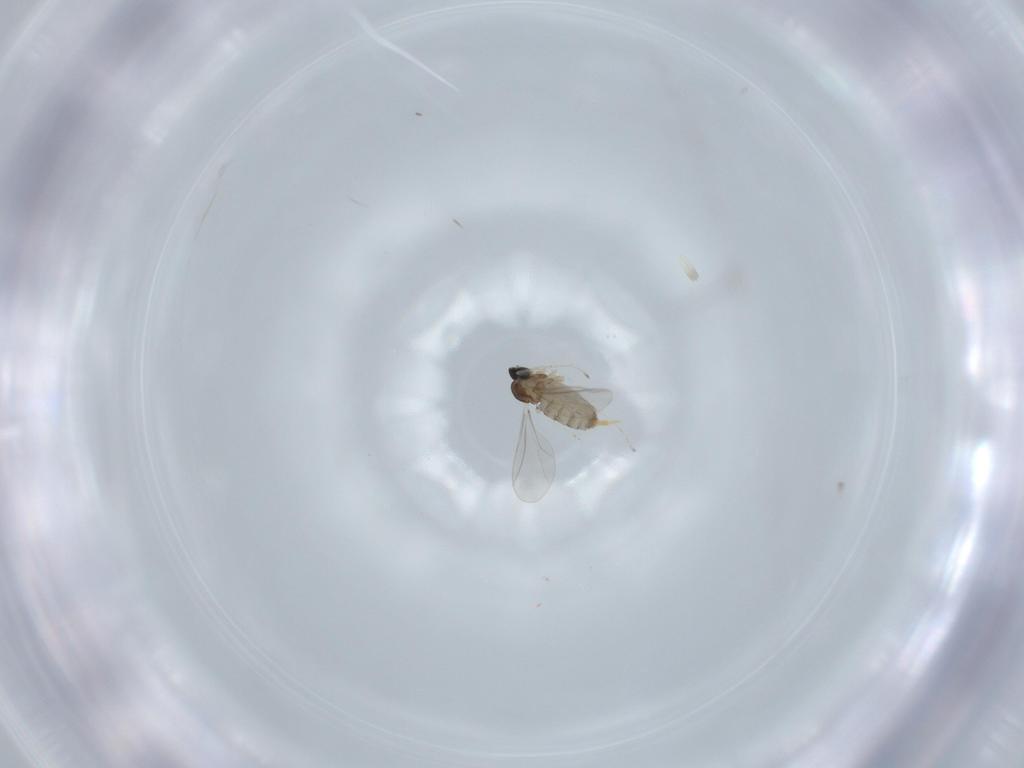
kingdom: Animalia
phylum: Arthropoda
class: Insecta
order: Diptera
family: Cecidomyiidae
